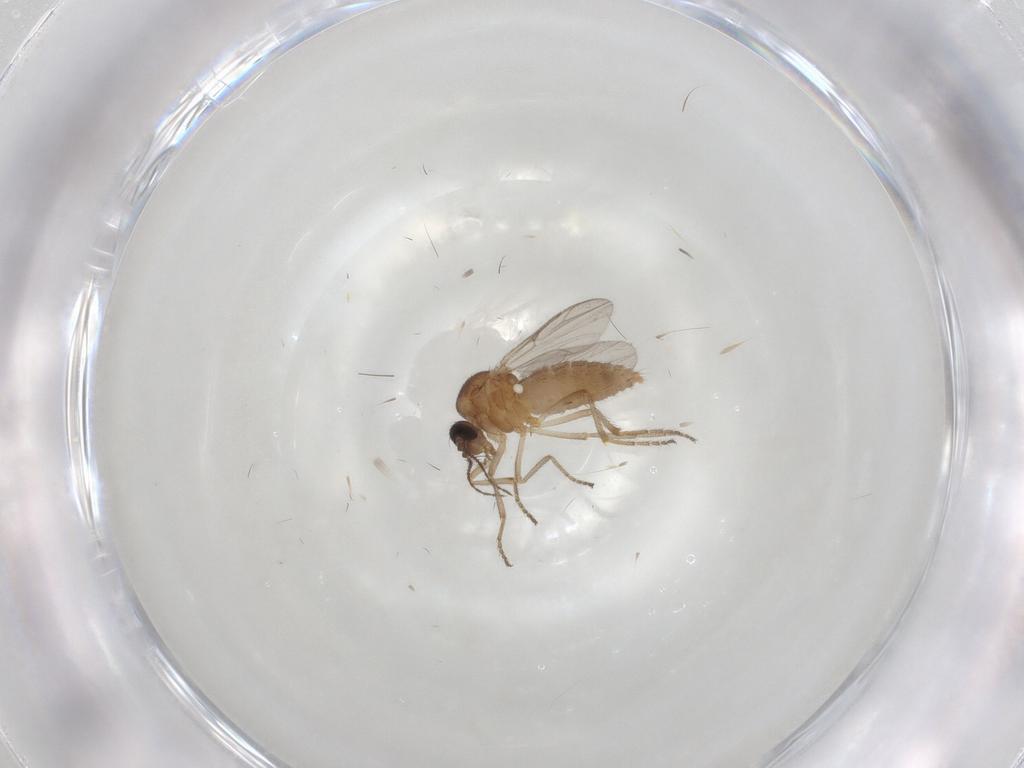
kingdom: Animalia
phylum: Arthropoda
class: Insecta
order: Diptera
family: Ceratopogonidae
